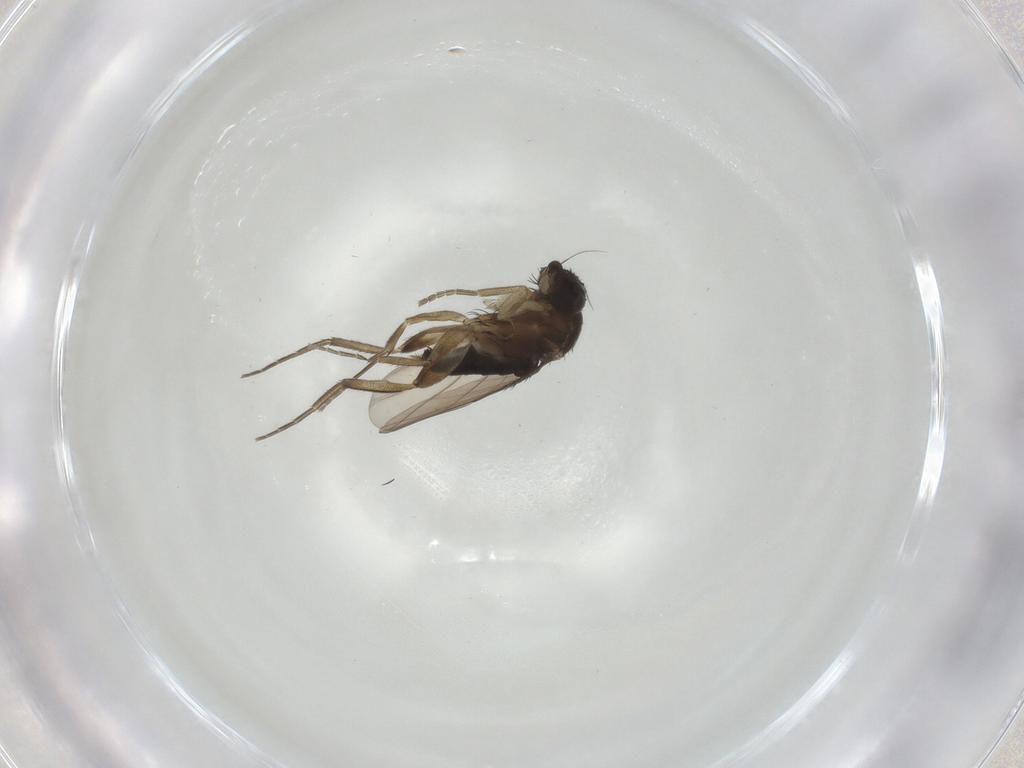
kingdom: Animalia
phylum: Arthropoda
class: Insecta
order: Diptera
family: Phoridae
